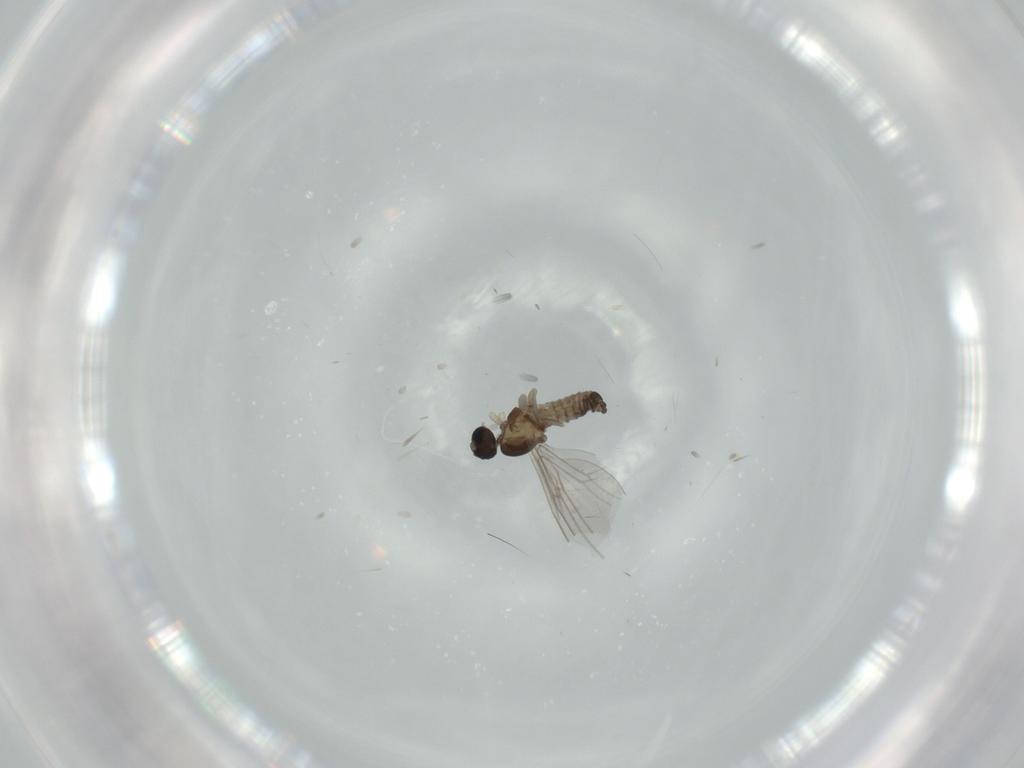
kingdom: Animalia
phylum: Arthropoda
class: Insecta
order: Diptera
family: Cecidomyiidae
